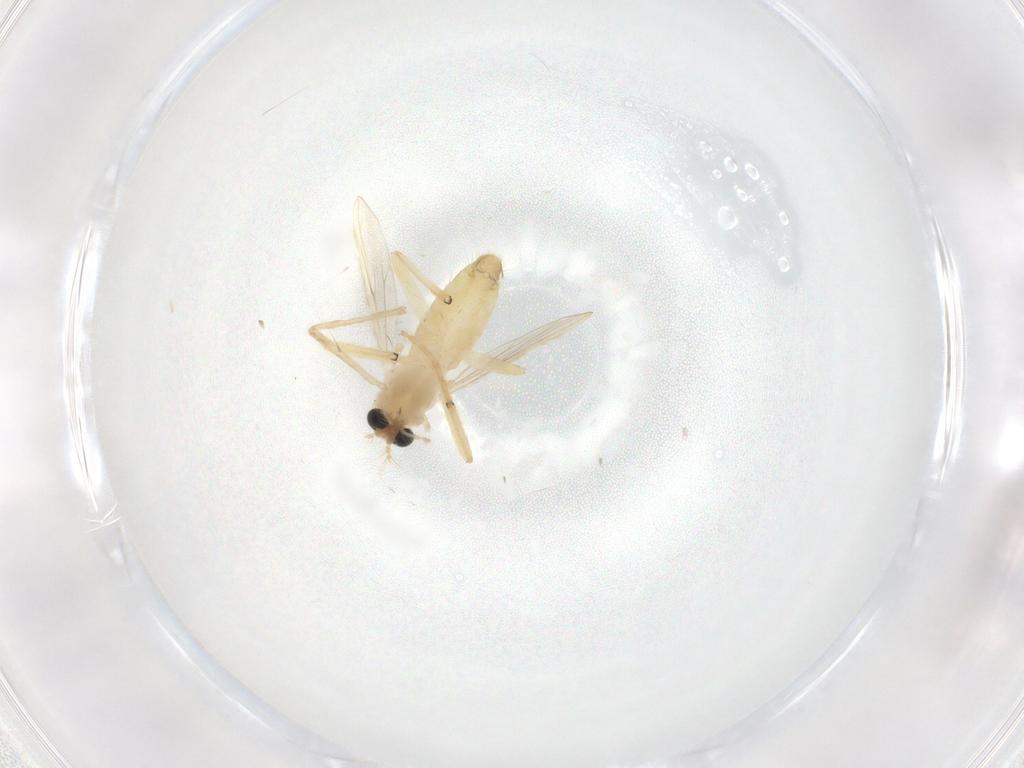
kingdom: Animalia
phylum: Arthropoda
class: Insecta
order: Diptera
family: Chironomidae
